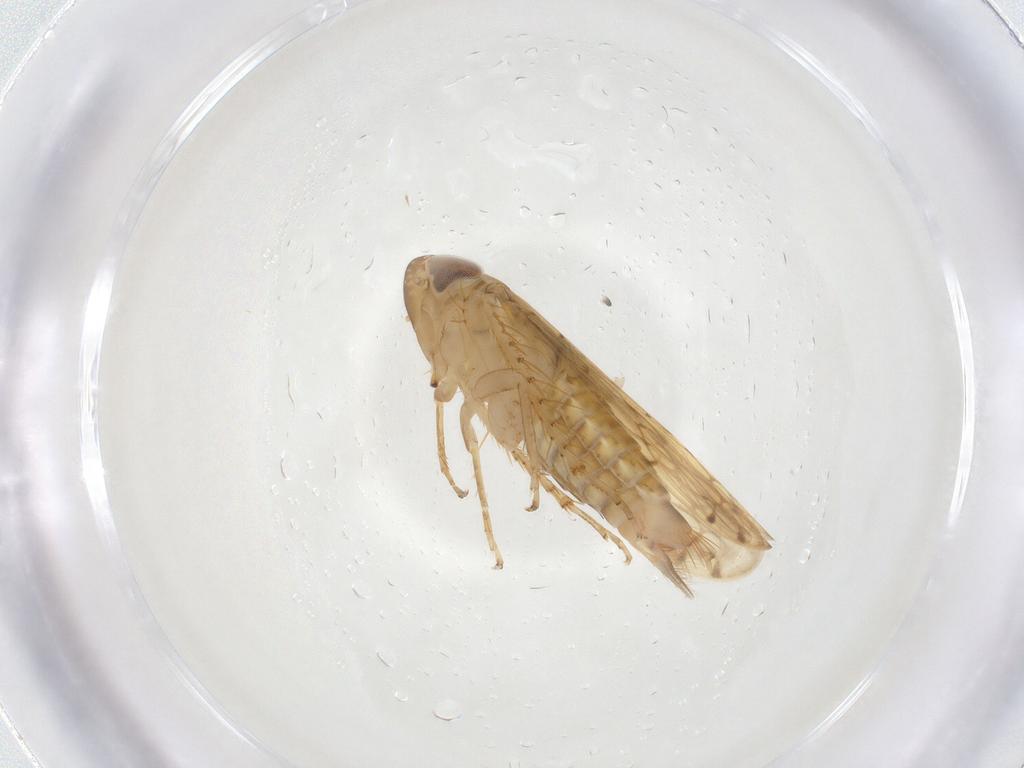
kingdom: Animalia
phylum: Arthropoda
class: Insecta
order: Hemiptera
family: Cicadellidae
